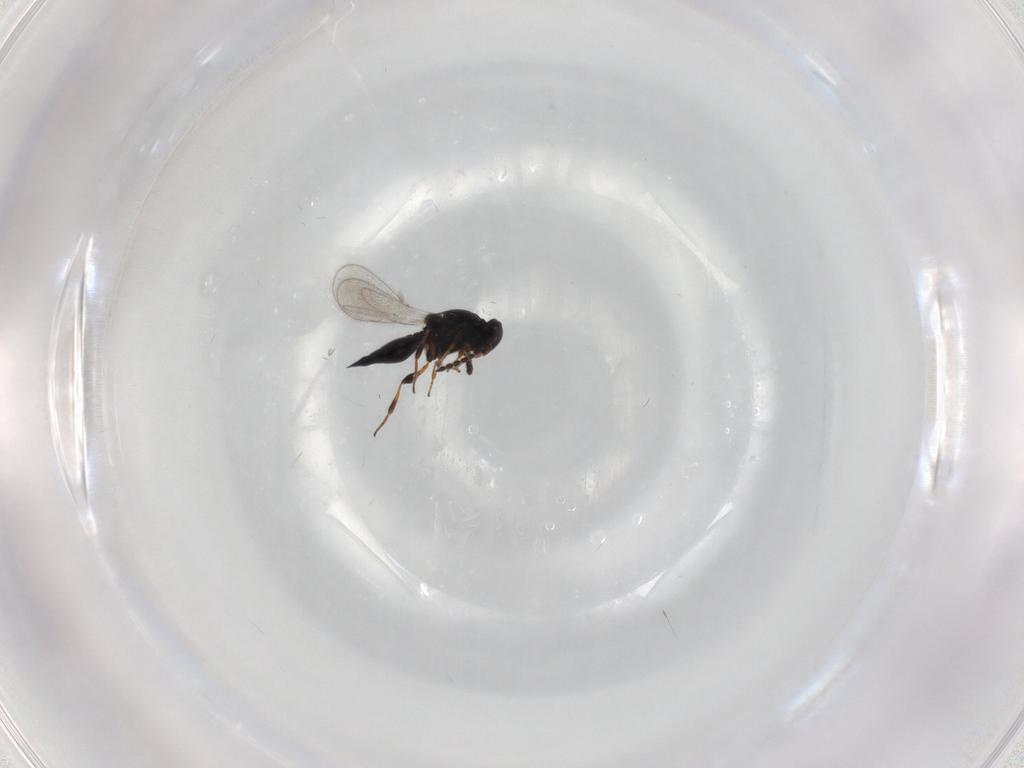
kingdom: Animalia
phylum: Arthropoda
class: Insecta
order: Hymenoptera
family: Platygastridae
